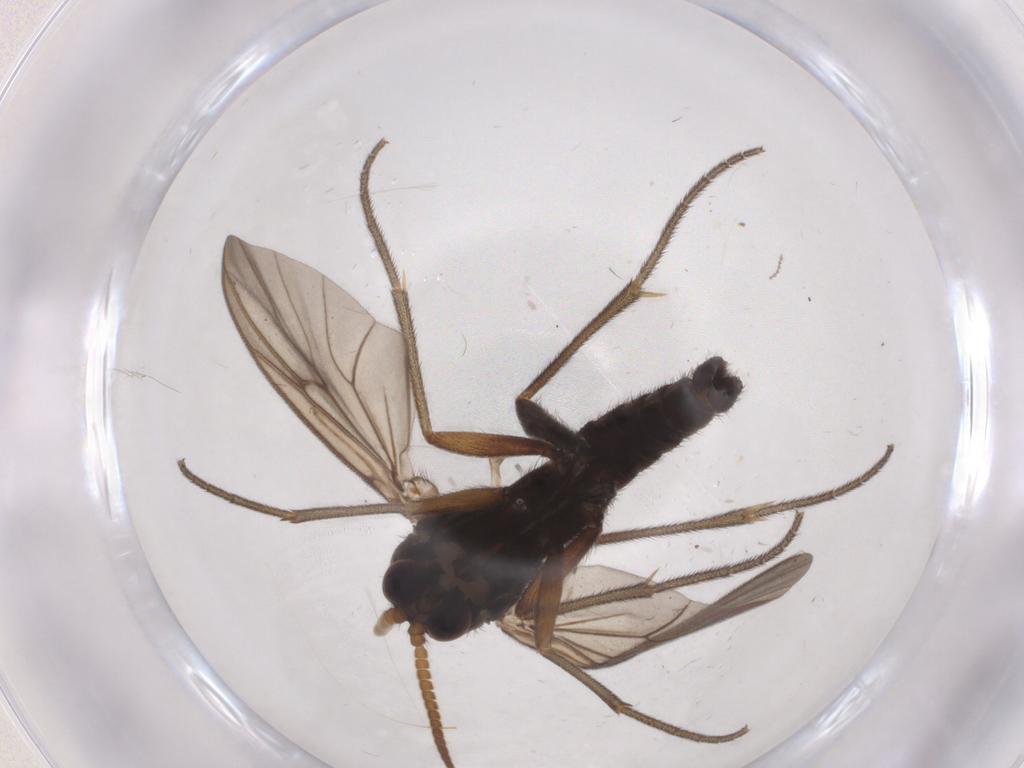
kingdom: Animalia
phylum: Arthropoda
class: Insecta
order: Diptera
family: Mycetophilidae
